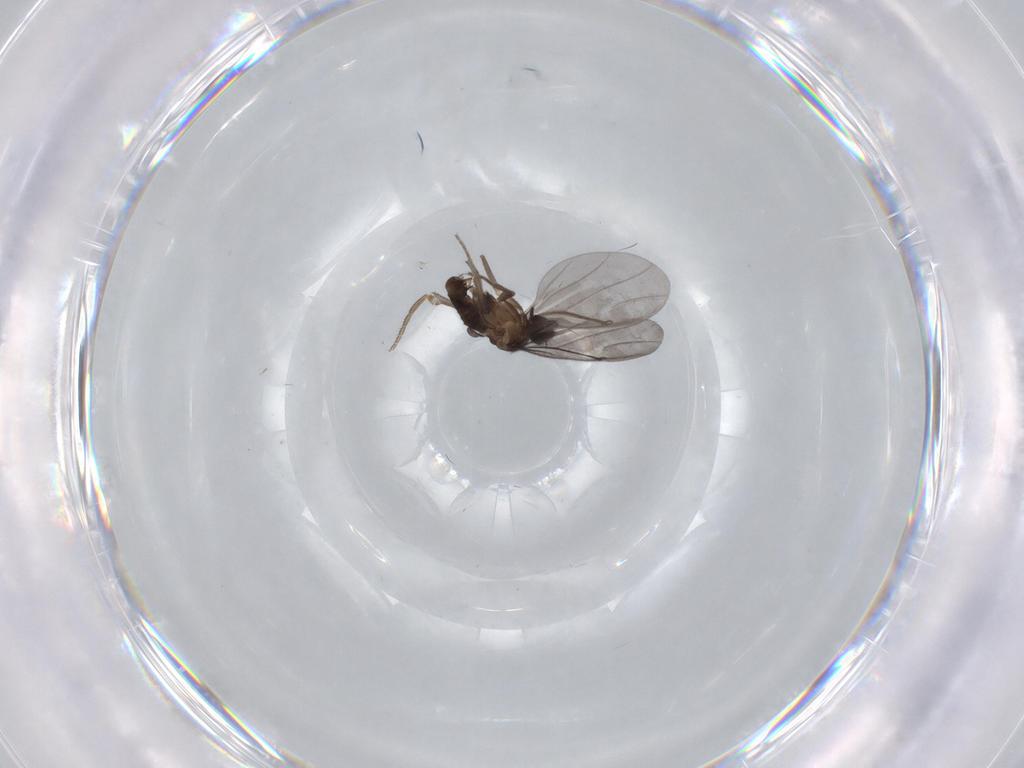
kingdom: Animalia
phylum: Arthropoda
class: Insecta
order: Diptera
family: Phoridae
